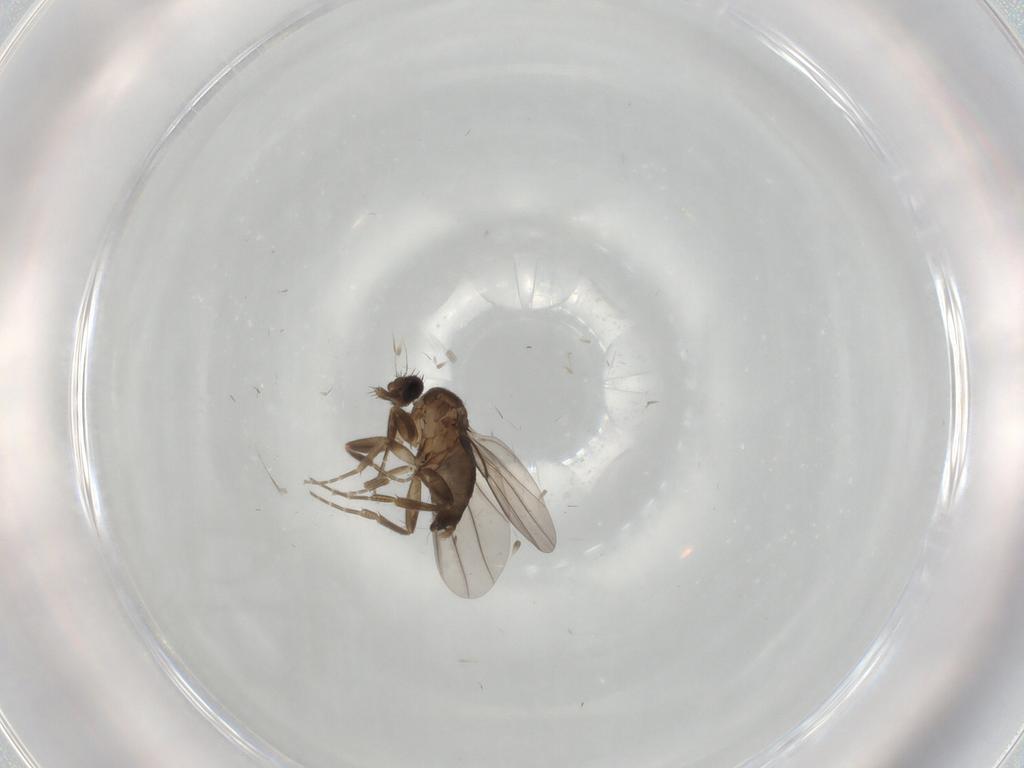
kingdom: Animalia
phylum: Arthropoda
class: Insecta
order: Diptera
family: Phoridae
